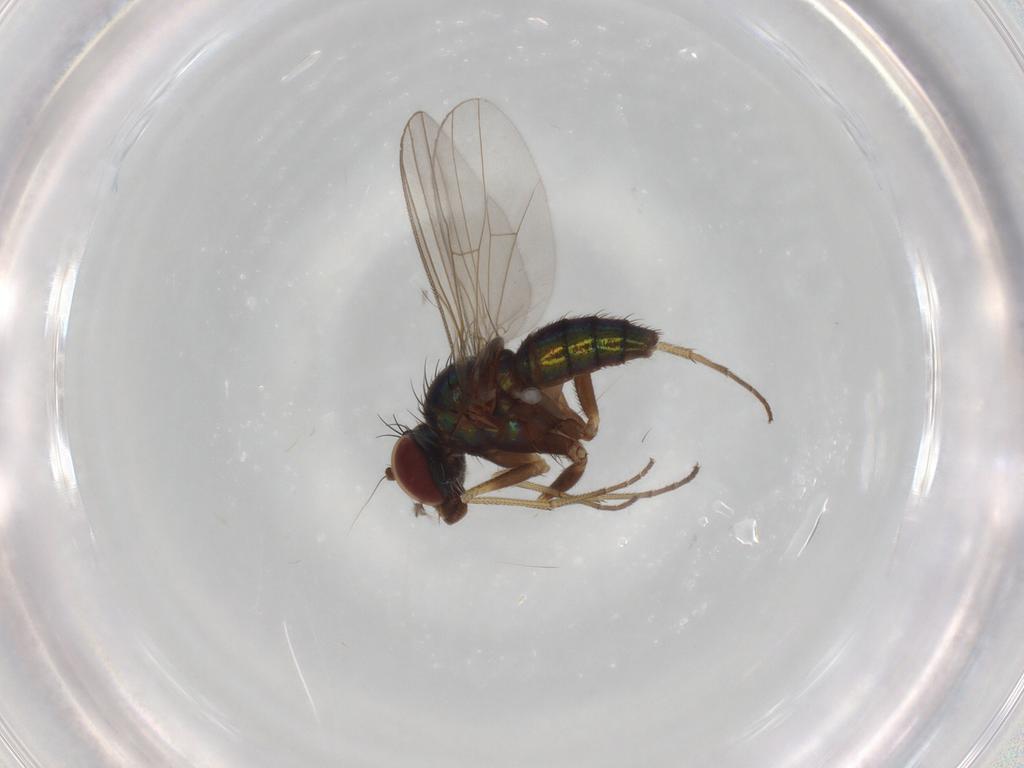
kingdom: Animalia
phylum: Arthropoda
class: Insecta
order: Diptera
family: Dolichopodidae
